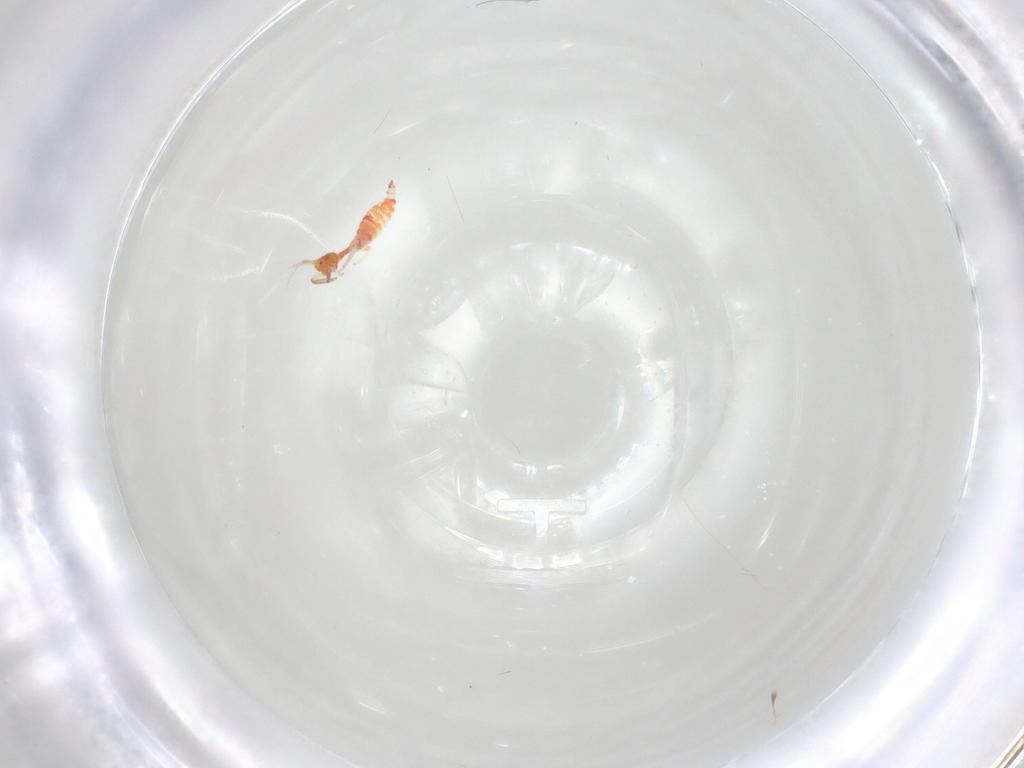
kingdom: Animalia
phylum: Arthropoda
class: Insecta
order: Thysanoptera
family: Aeolothripidae
